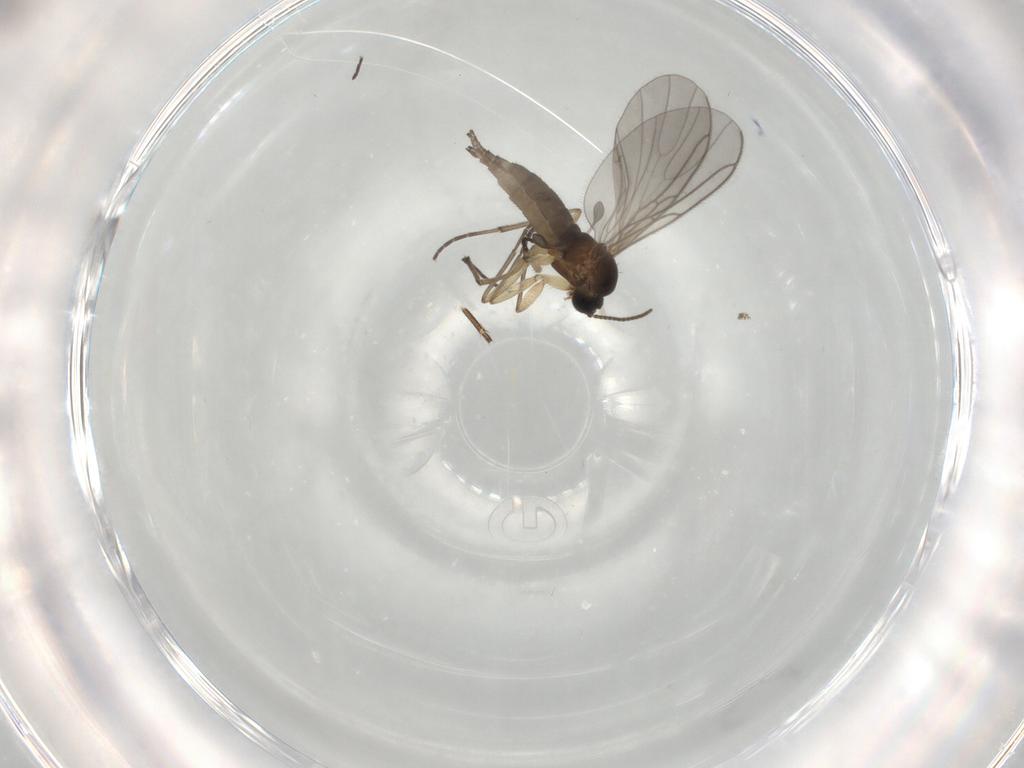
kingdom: Animalia
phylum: Arthropoda
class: Insecta
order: Diptera
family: Sciaridae
